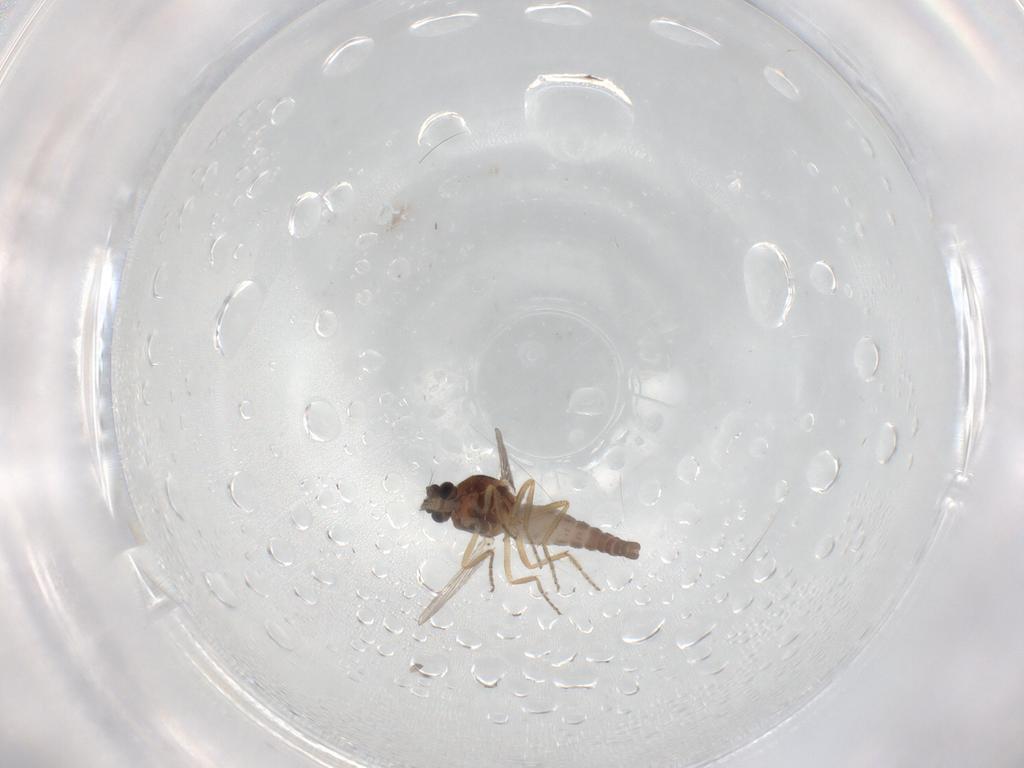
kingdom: Animalia
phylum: Arthropoda
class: Insecta
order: Diptera
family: Ceratopogonidae
